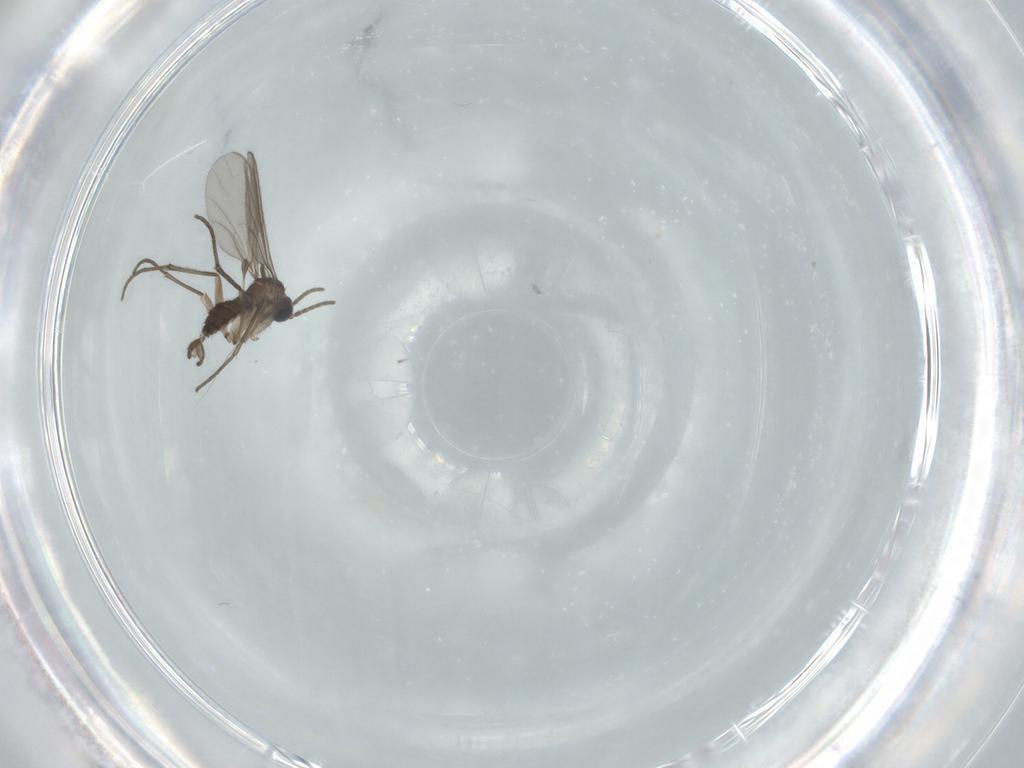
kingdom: Animalia
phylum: Arthropoda
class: Insecta
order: Diptera
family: Sciaridae
